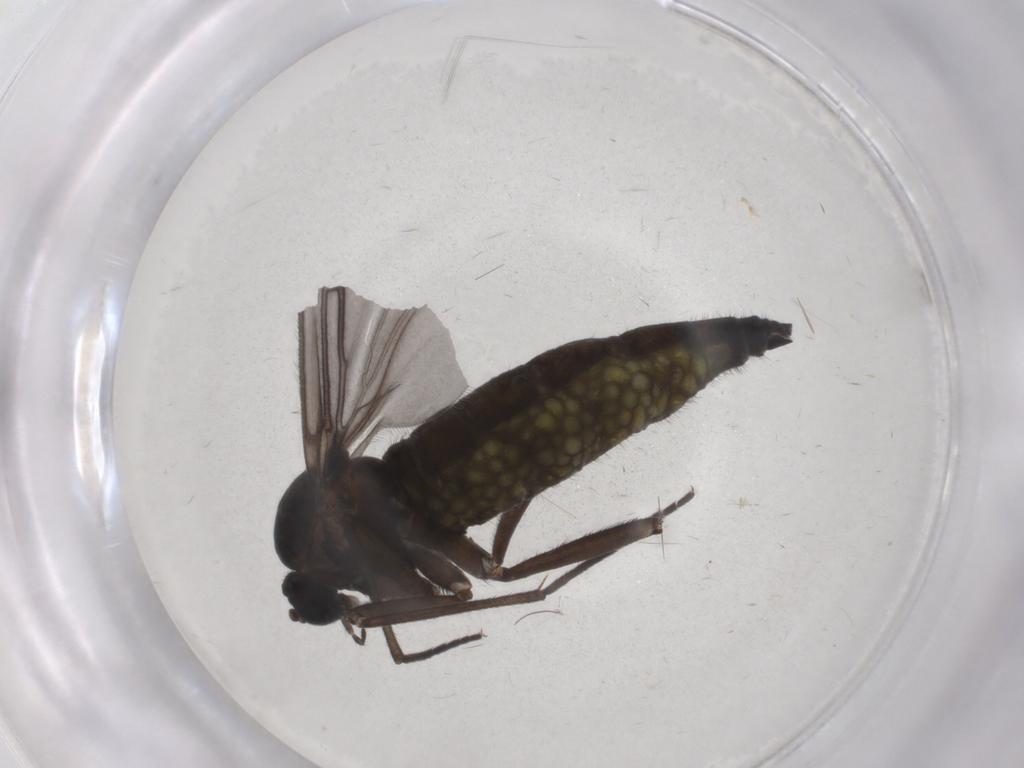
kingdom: Animalia
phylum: Arthropoda
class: Insecta
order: Diptera
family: Sciaridae
